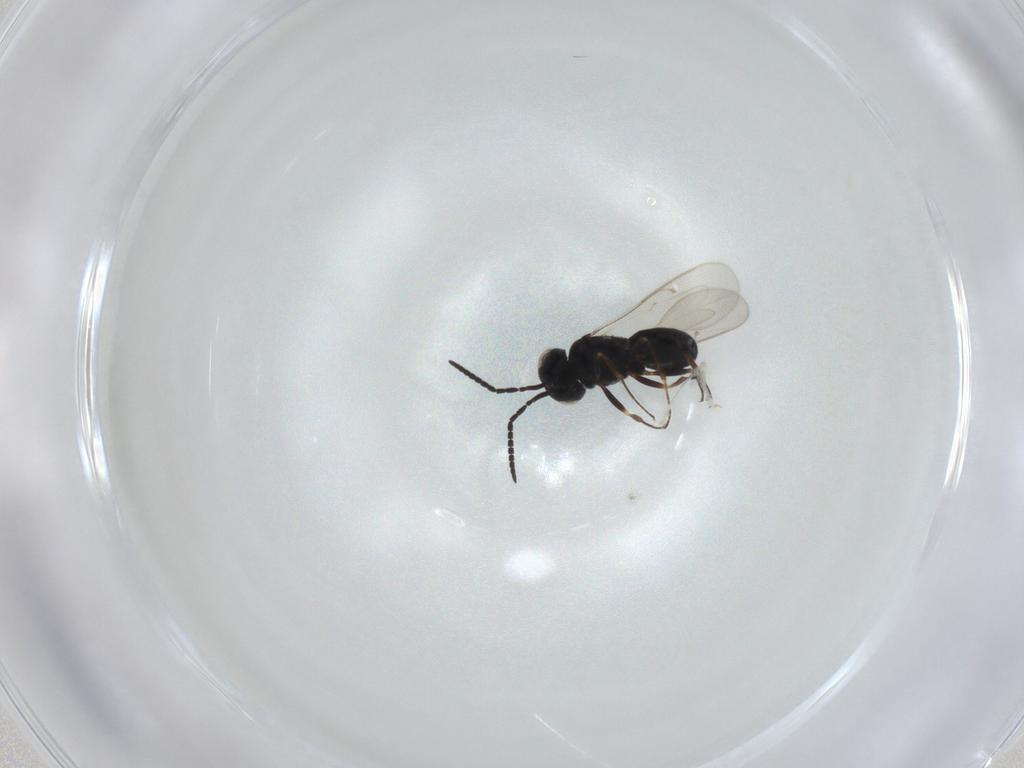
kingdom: Animalia
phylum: Arthropoda
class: Insecta
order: Hymenoptera
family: Scelionidae
